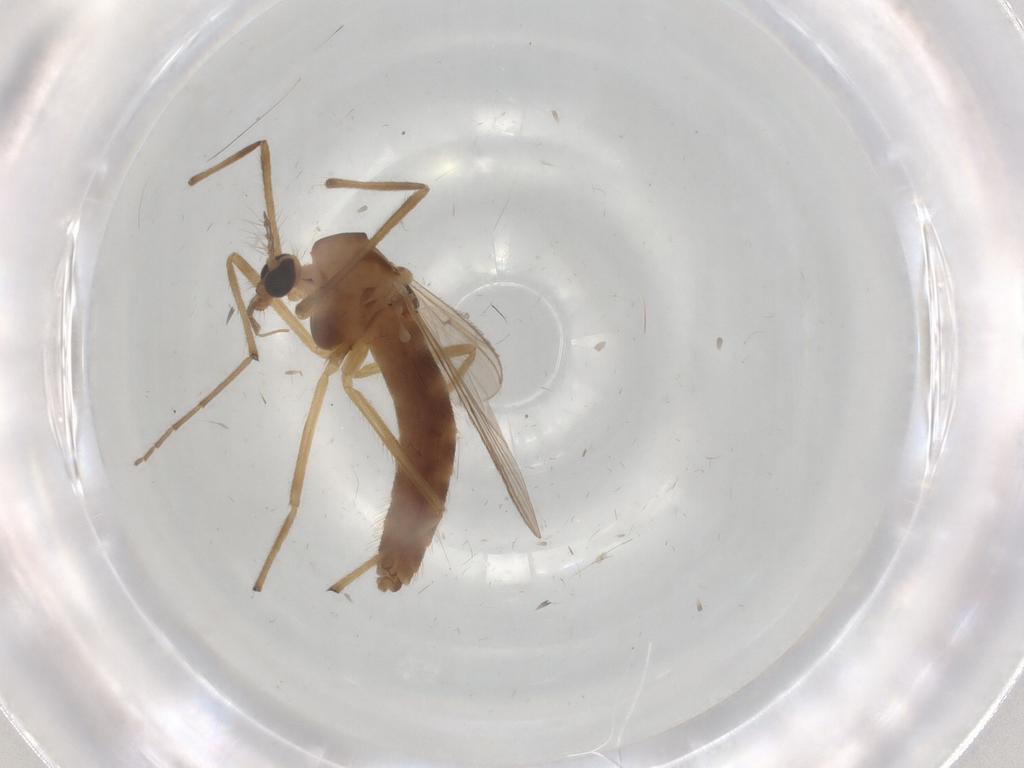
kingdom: Animalia
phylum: Arthropoda
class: Insecta
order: Diptera
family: Chironomidae
